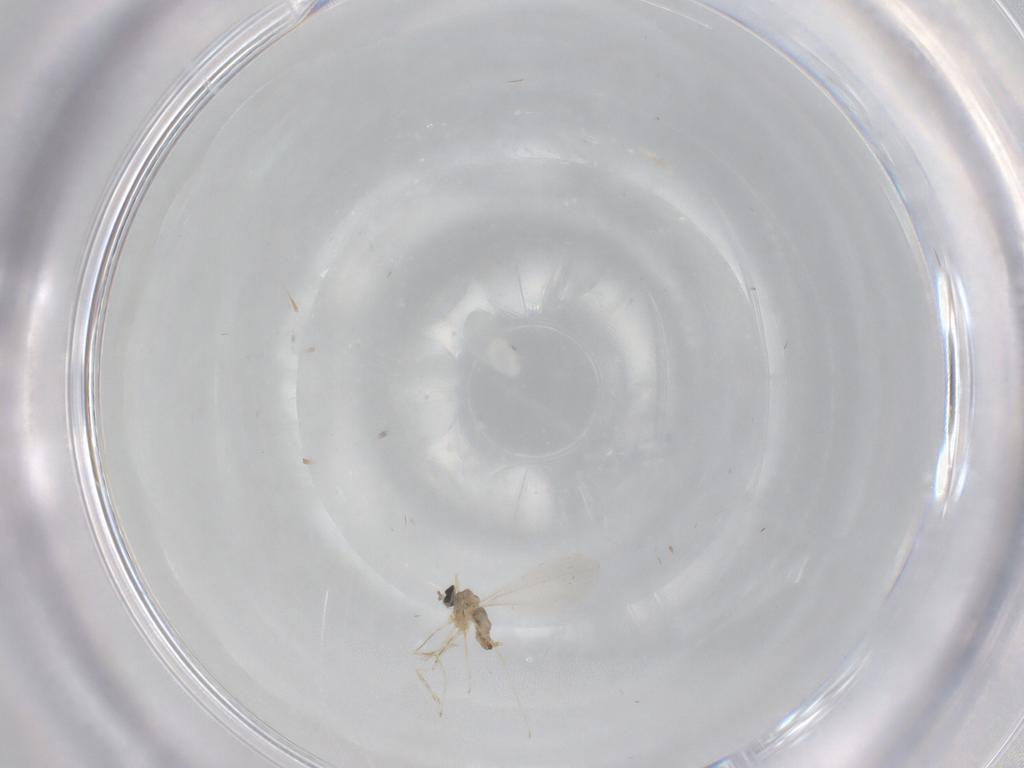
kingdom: Animalia
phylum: Arthropoda
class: Insecta
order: Diptera
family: Cecidomyiidae
